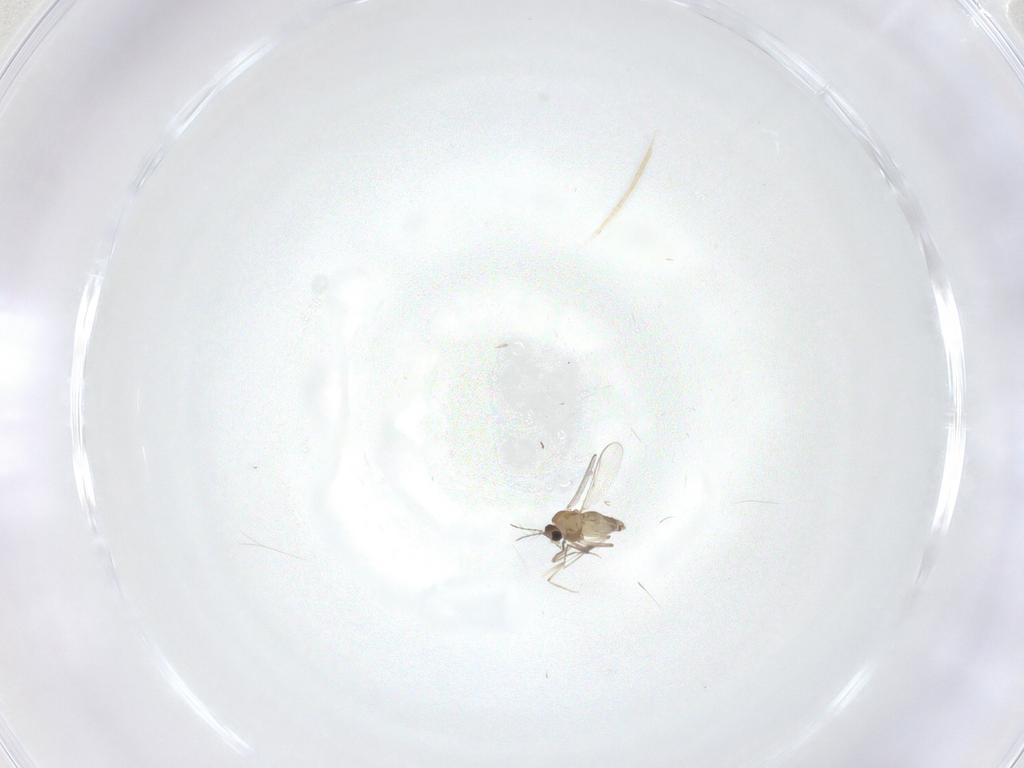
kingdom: Animalia
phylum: Arthropoda
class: Insecta
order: Diptera
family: Chironomidae
